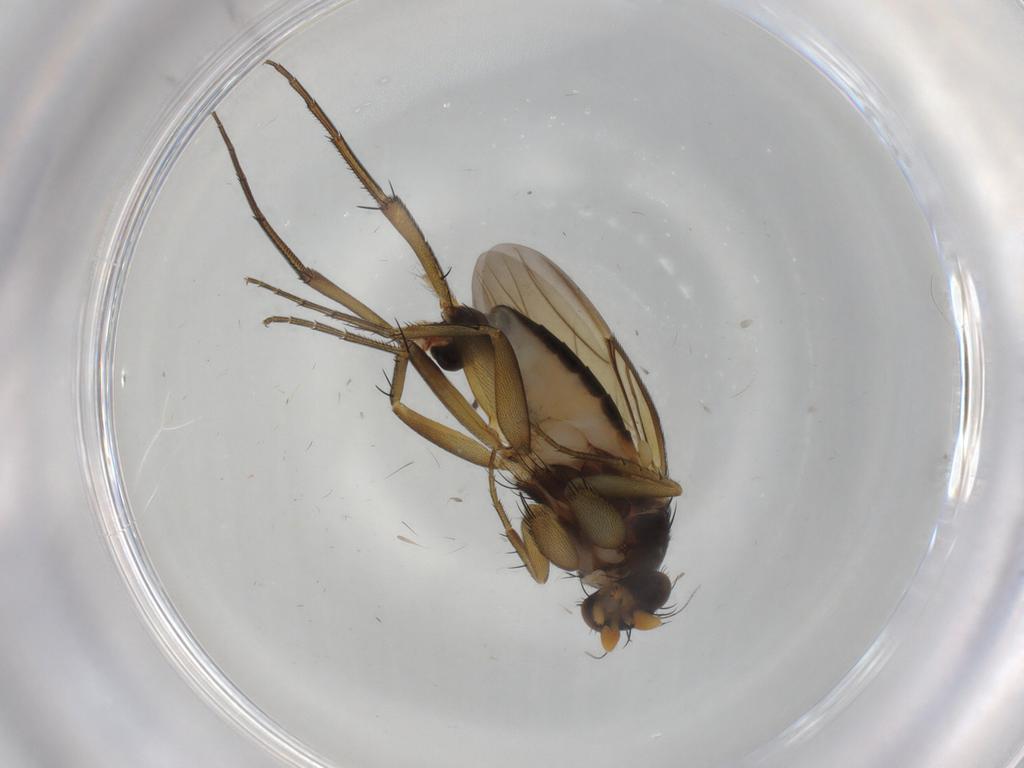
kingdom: Animalia
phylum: Arthropoda
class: Insecta
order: Diptera
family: Phoridae
